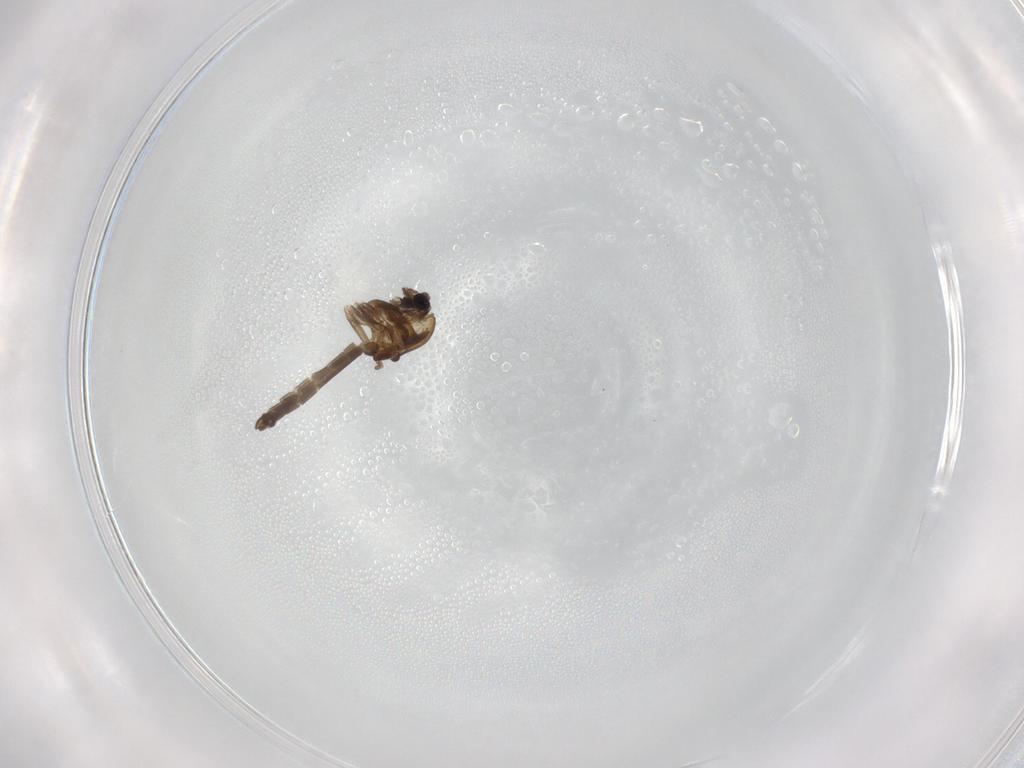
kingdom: Animalia
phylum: Arthropoda
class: Insecta
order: Diptera
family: Chironomidae
